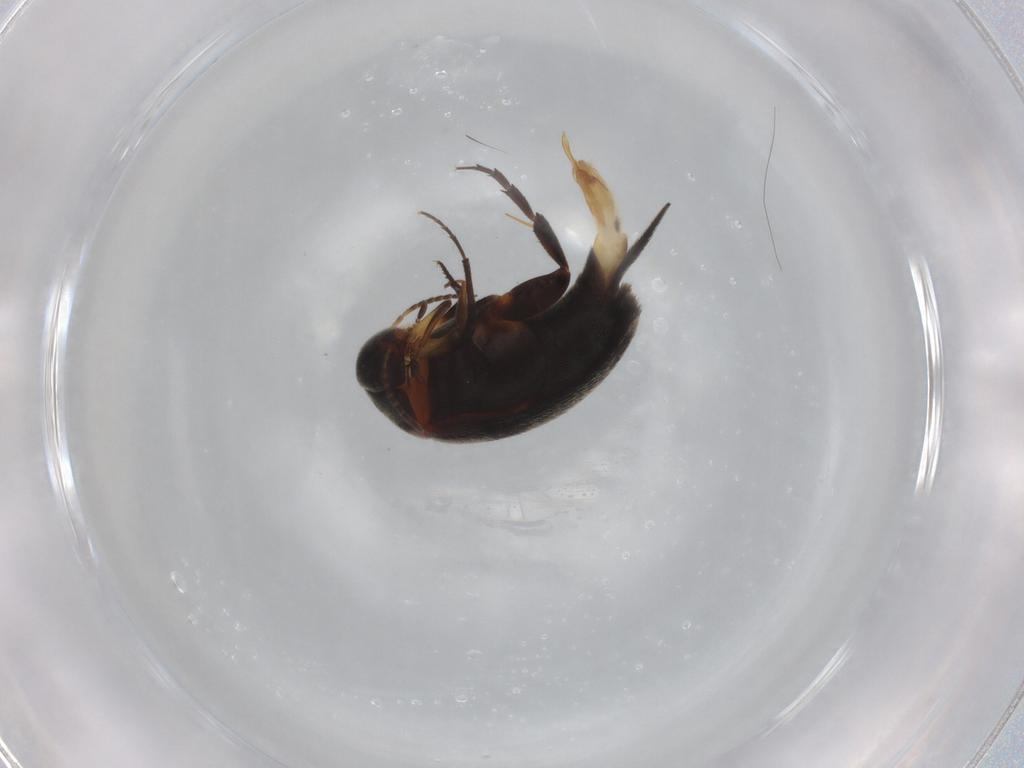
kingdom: Animalia
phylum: Arthropoda
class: Insecta
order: Coleoptera
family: Mordellidae
